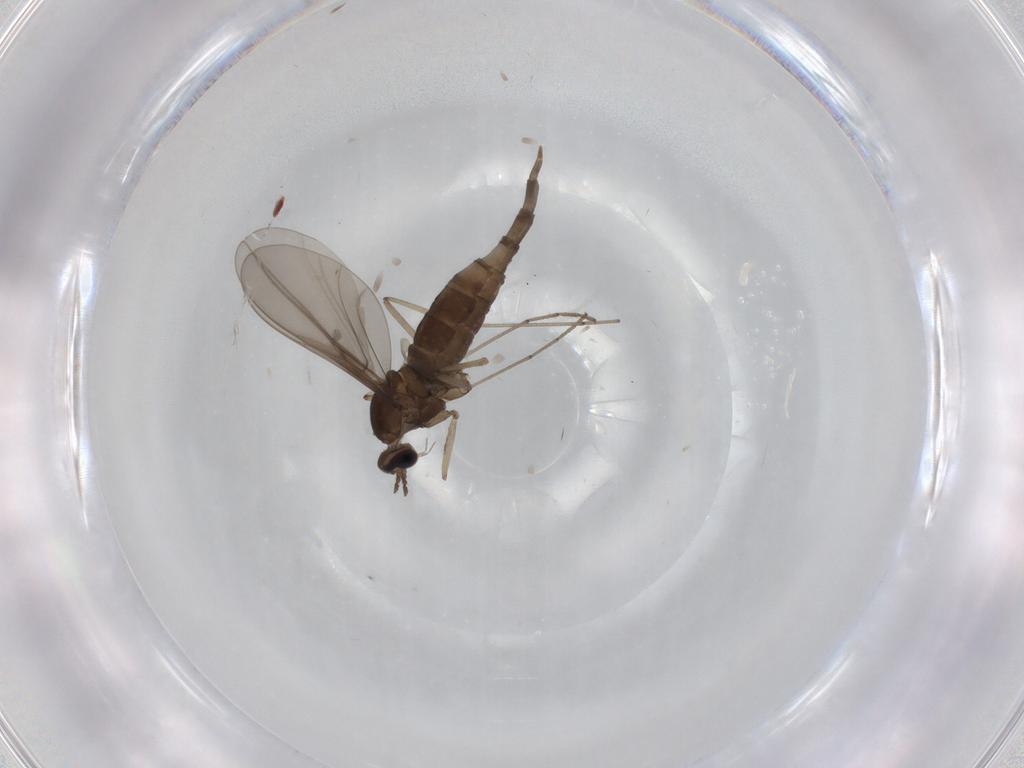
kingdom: Animalia
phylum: Arthropoda
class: Insecta
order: Diptera
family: Cecidomyiidae
